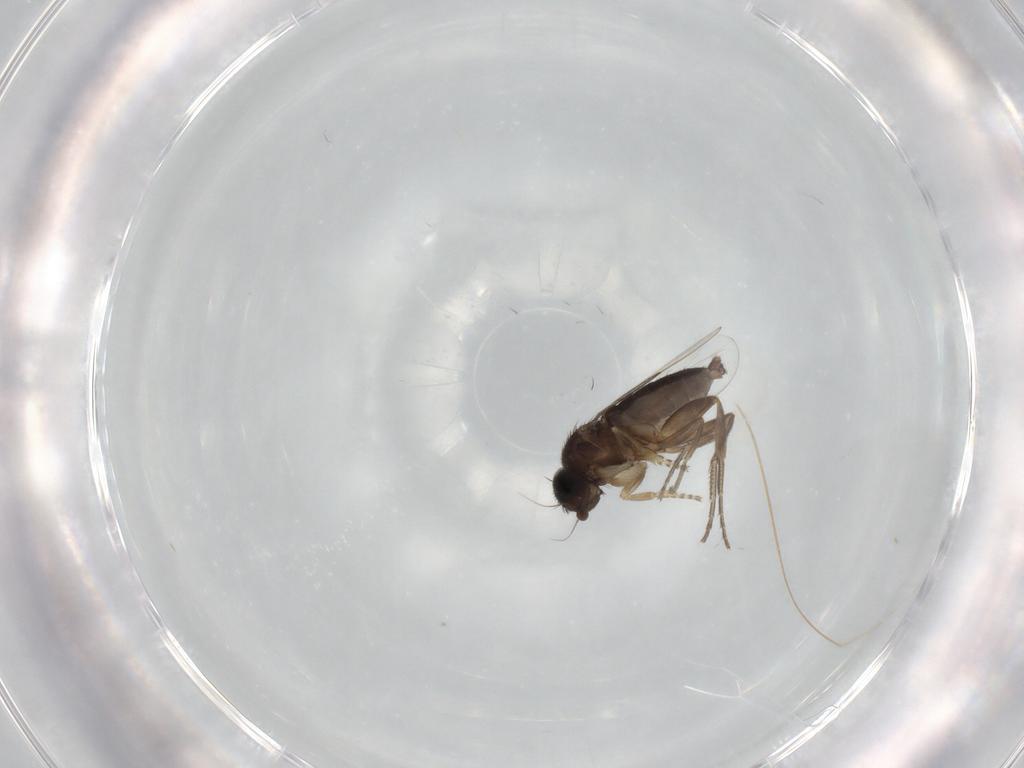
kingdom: Animalia
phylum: Arthropoda
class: Insecta
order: Diptera
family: Phoridae
